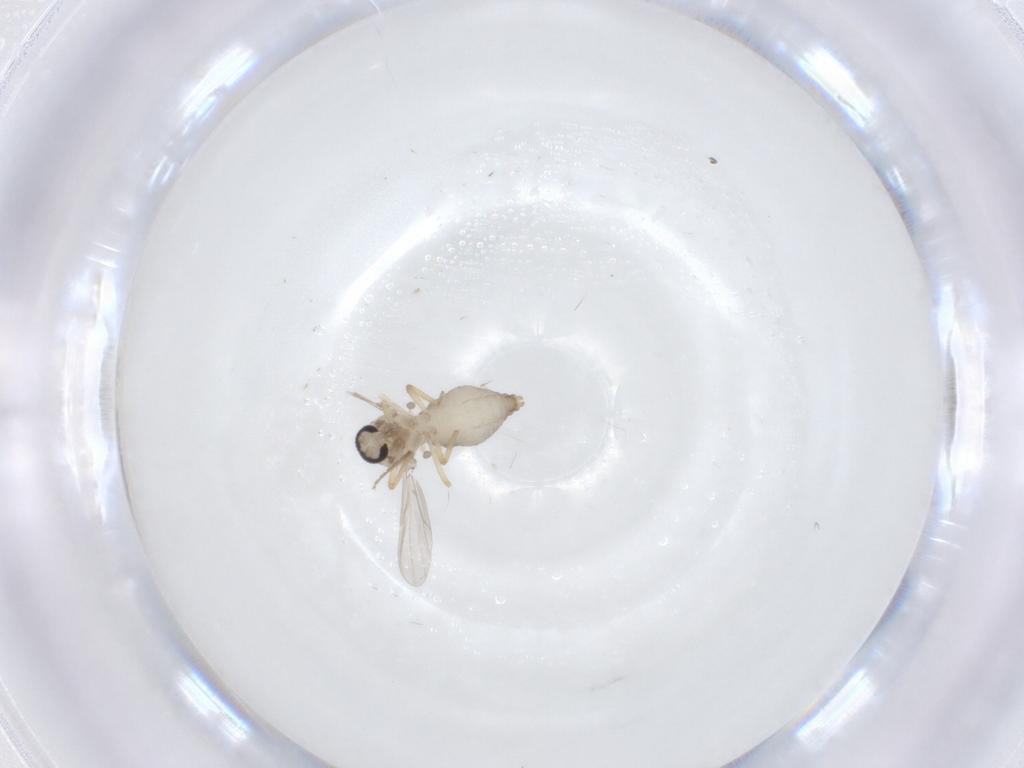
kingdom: Animalia
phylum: Arthropoda
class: Insecta
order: Diptera
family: Ceratopogonidae
